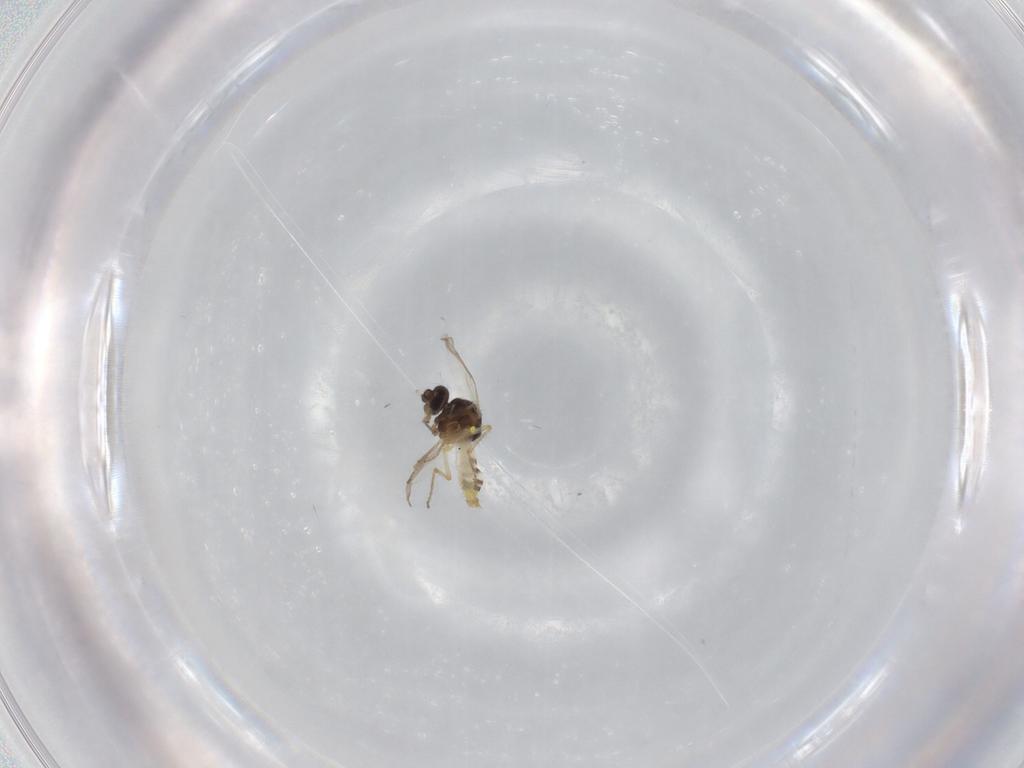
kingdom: Animalia
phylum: Arthropoda
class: Insecta
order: Diptera
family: Ceratopogonidae
